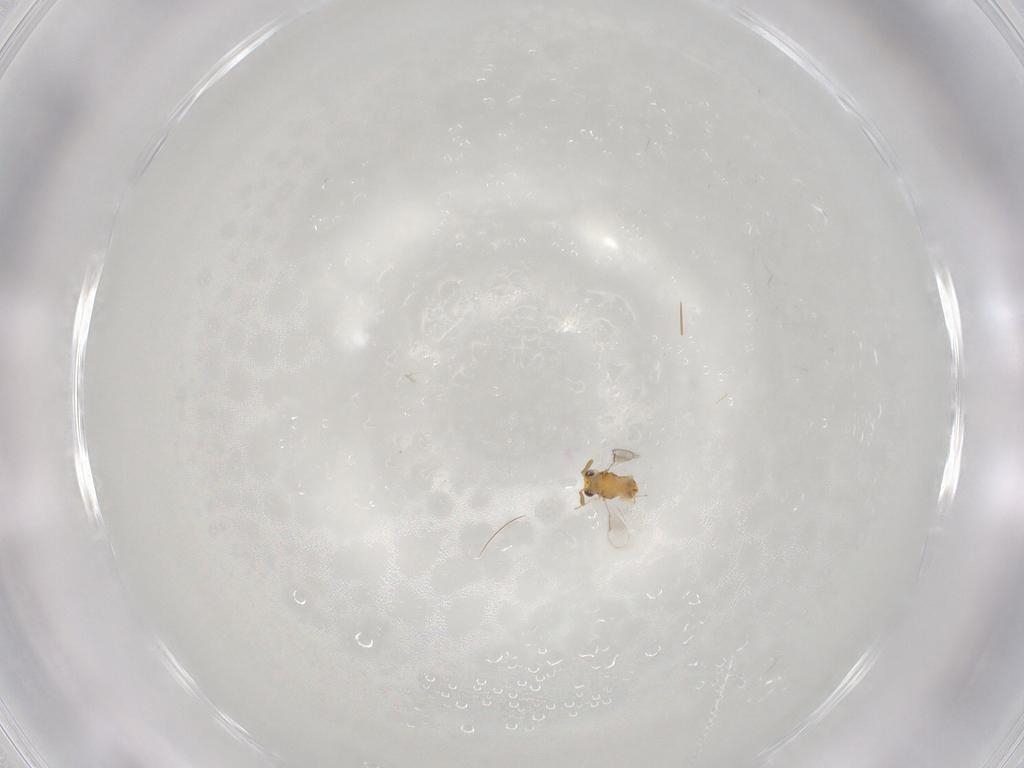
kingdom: Animalia
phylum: Arthropoda
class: Insecta
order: Hymenoptera
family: Aphelinidae
